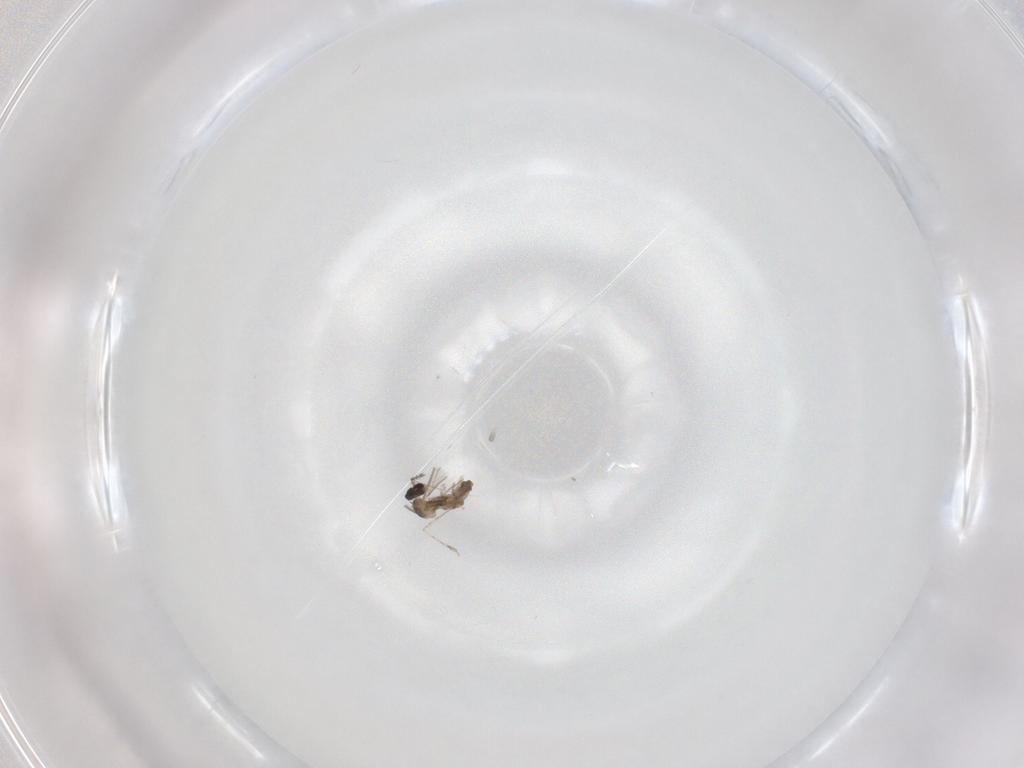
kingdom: Animalia
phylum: Arthropoda
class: Insecta
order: Diptera
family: Cecidomyiidae
